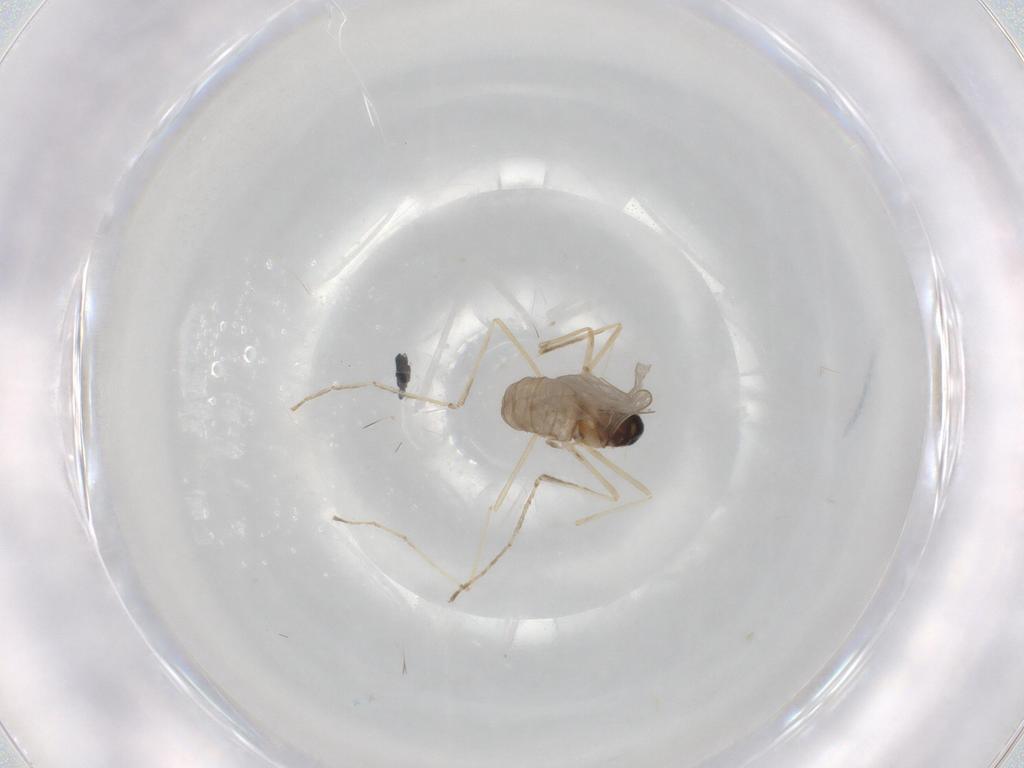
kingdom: Animalia
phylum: Arthropoda
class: Insecta
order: Diptera
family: Cecidomyiidae
